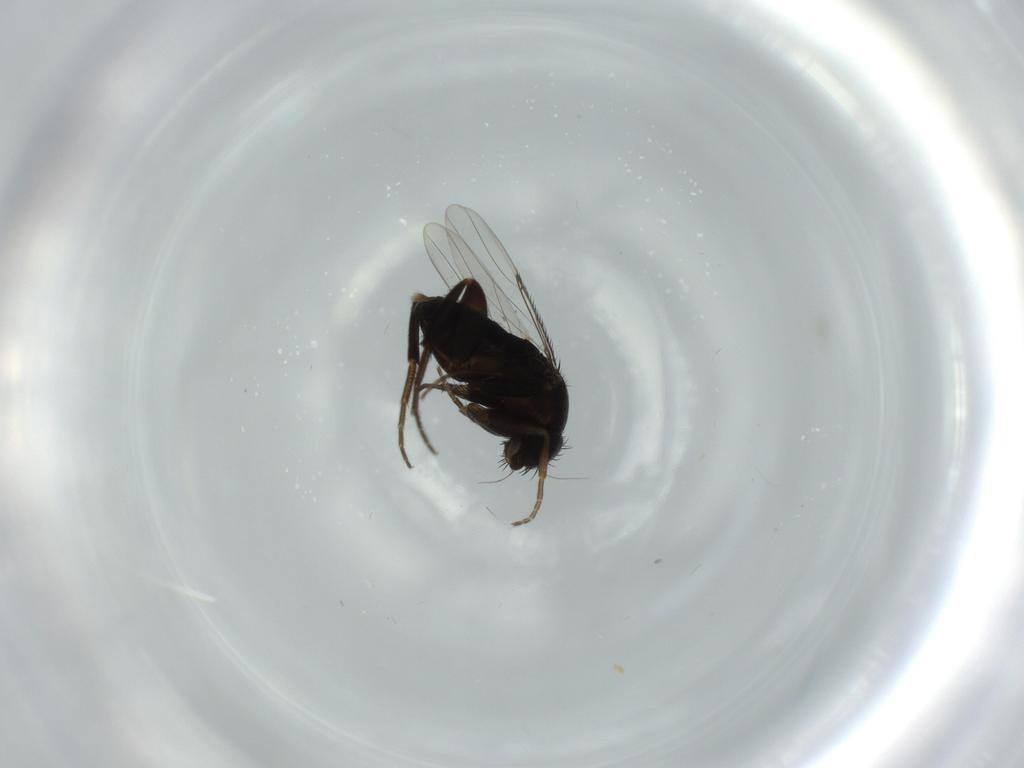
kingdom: Animalia
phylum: Arthropoda
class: Insecta
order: Diptera
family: Phoridae
